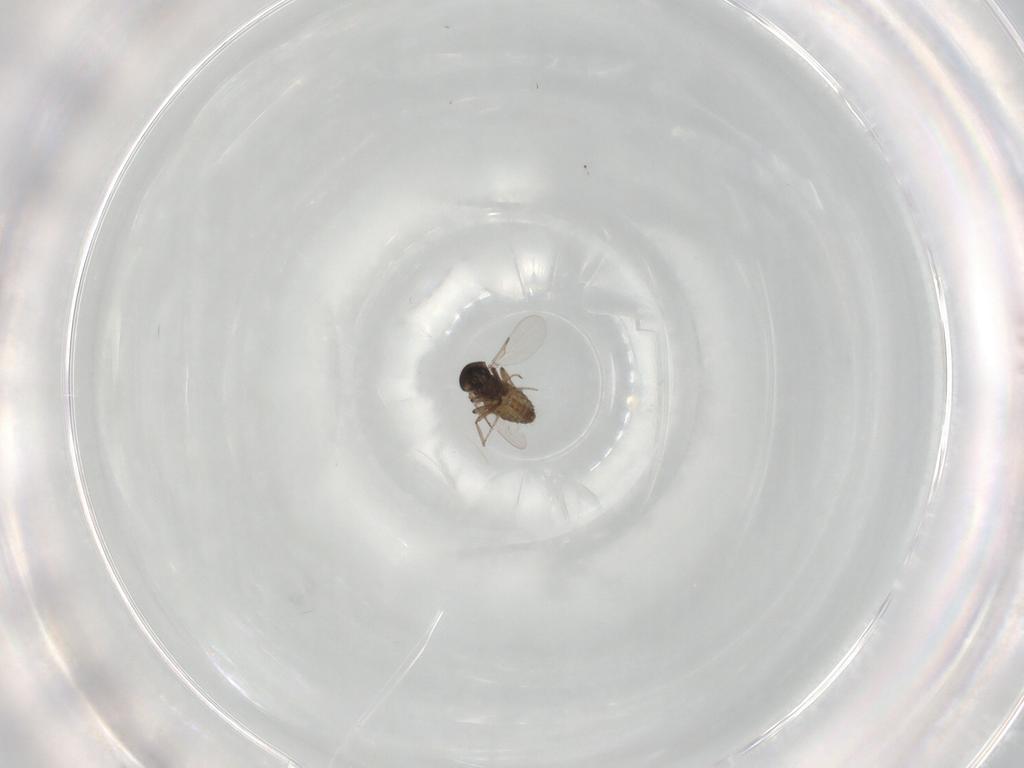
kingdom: Animalia
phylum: Arthropoda
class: Insecta
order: Diptera
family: Ceratopogonidae
